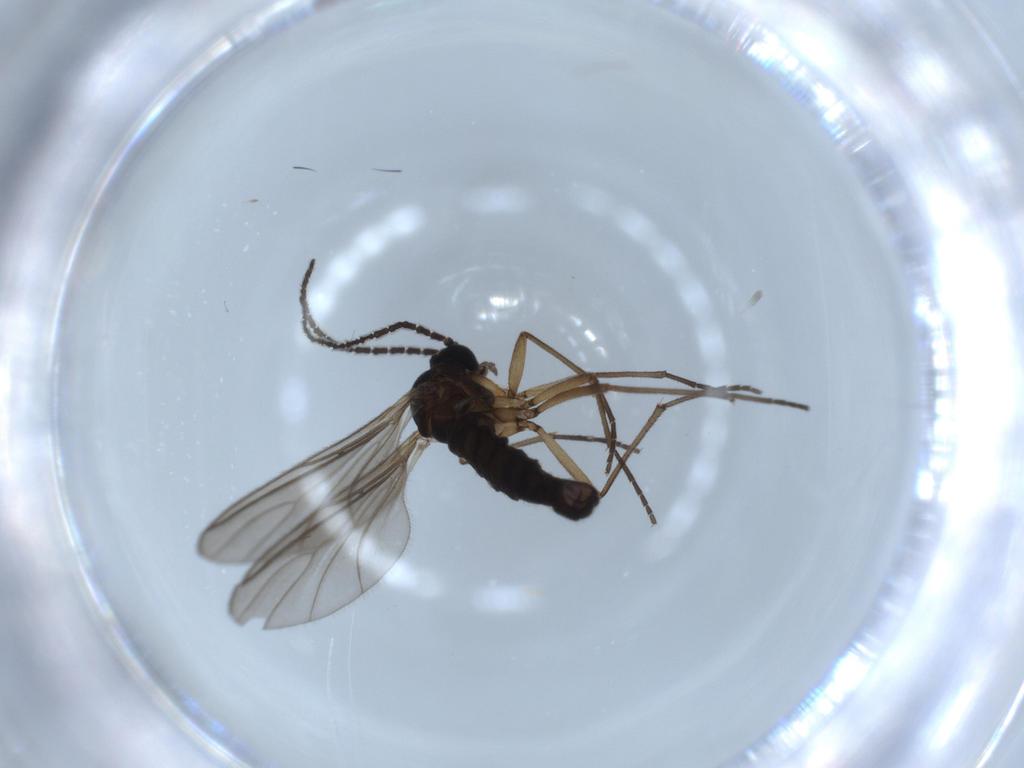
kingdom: Animalia
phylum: Arthropoda
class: Insecta
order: Diptera
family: Sciaridae
